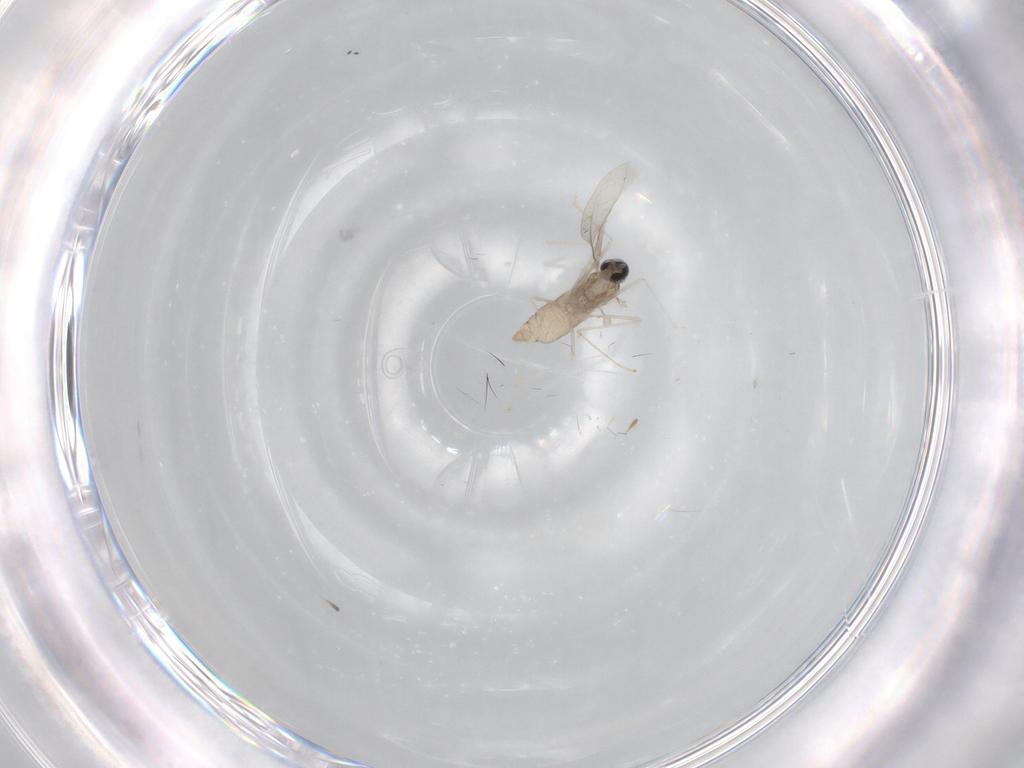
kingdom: Animalia
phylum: Arthropoda
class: Insecta
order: Diptera
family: Cecidomyiidae
